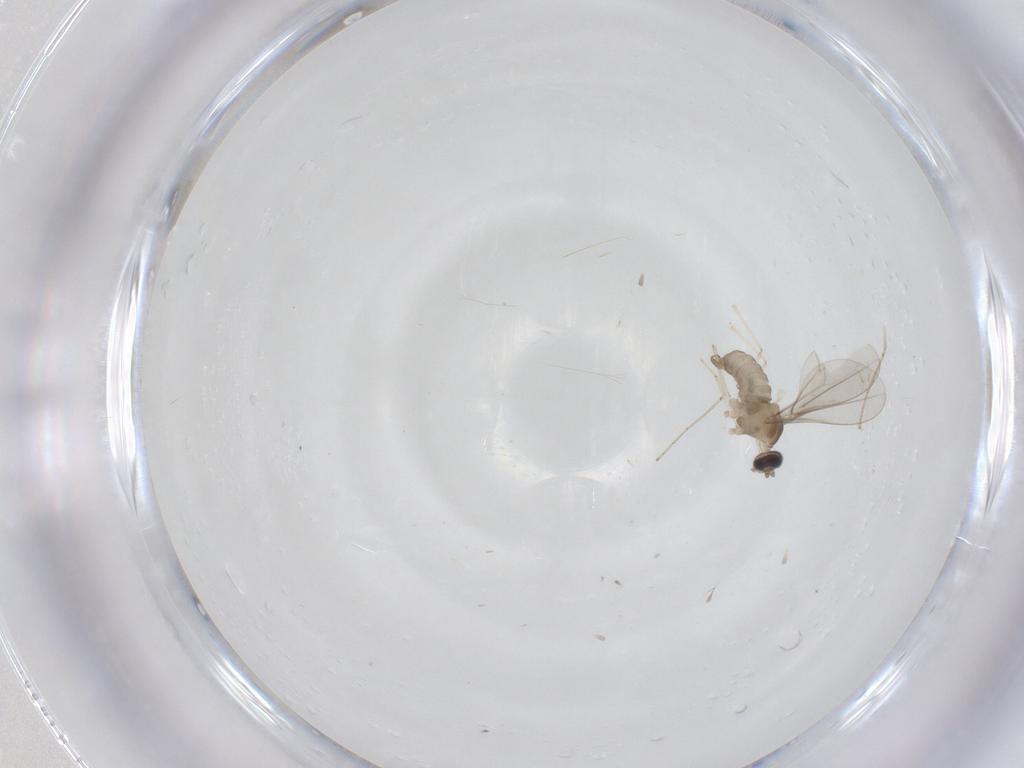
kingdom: Animalia
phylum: Arthropoda
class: Insecta
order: Diptera
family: Cecidomyiidae
